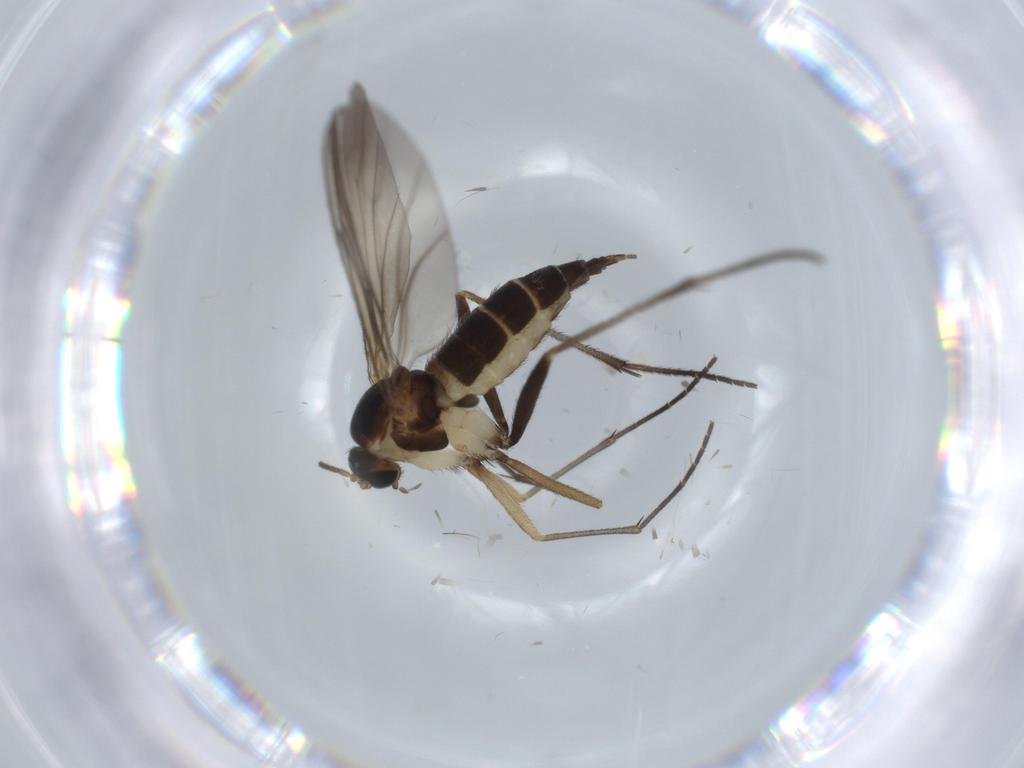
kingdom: Animalia
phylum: Arthropoda
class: Insecta
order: Diptera
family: Sciaridae
